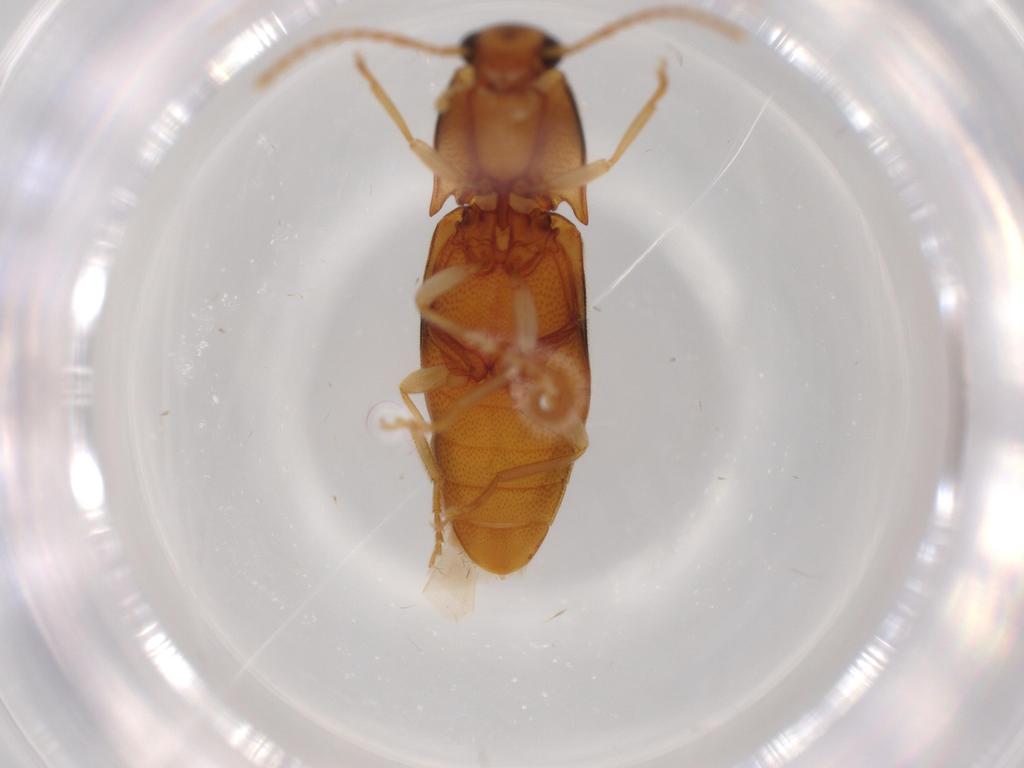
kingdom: Animalia
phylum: Arthropoda
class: Insecta
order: Coleoptera
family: Elateridae
